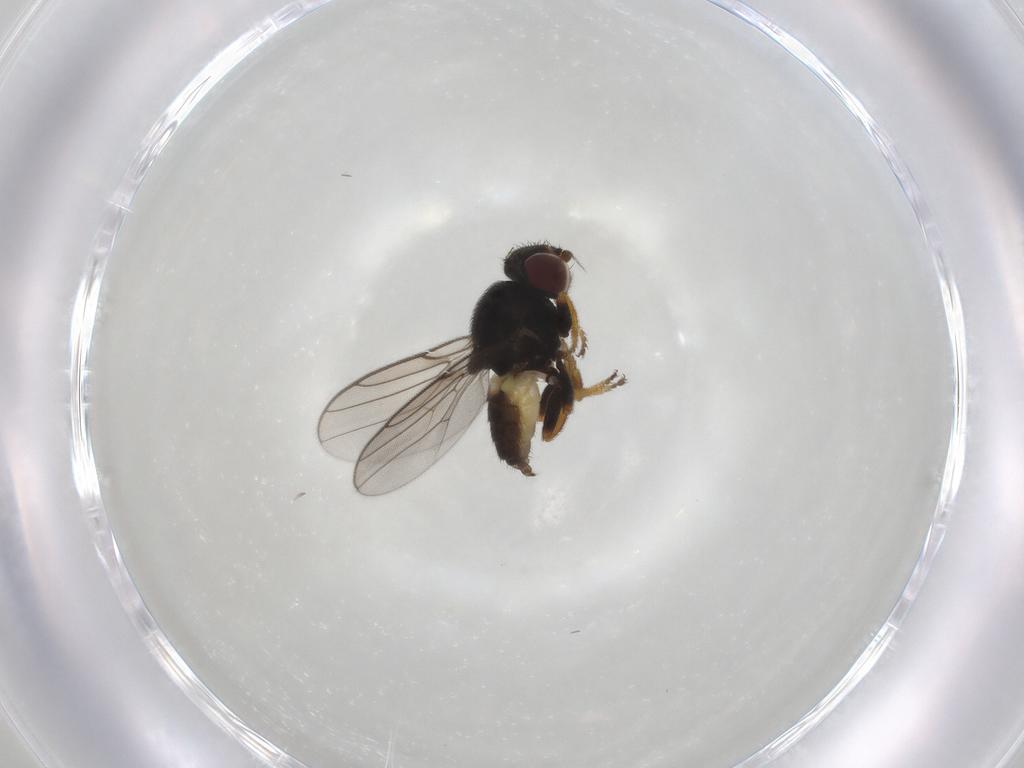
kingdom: Animalia
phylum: Arthropoda
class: Insecta
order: Diptera
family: Chloropidae
